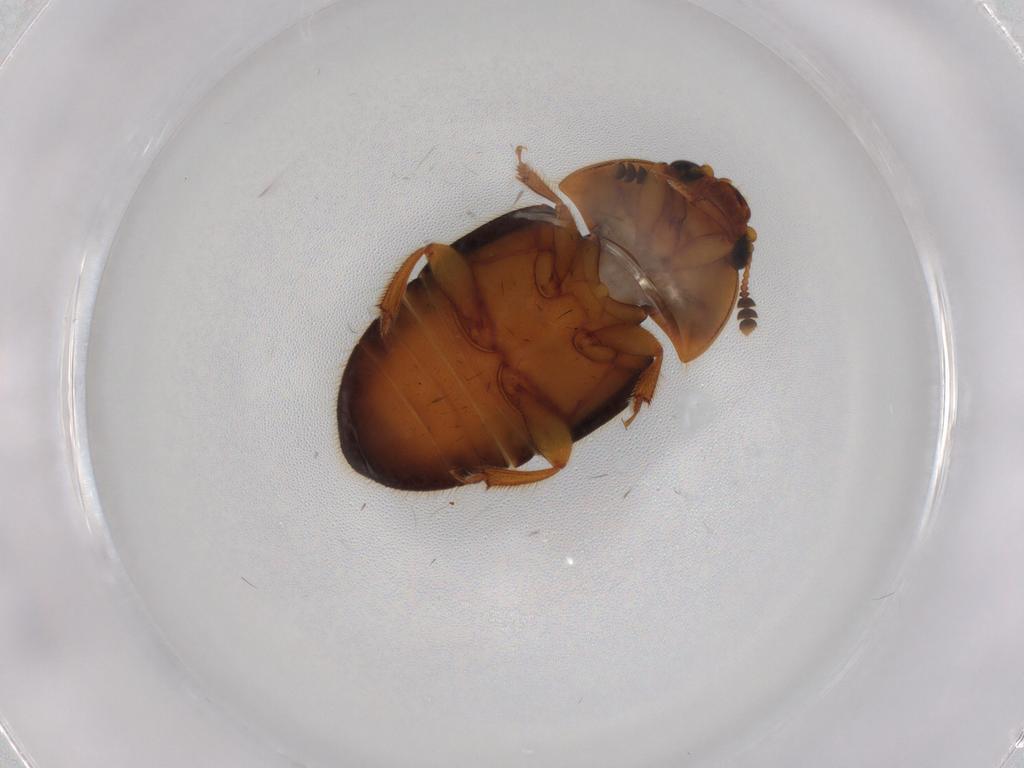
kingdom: Animalia
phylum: Arthropoda
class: Insecta
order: Coleoptera
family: Nitidulidae
